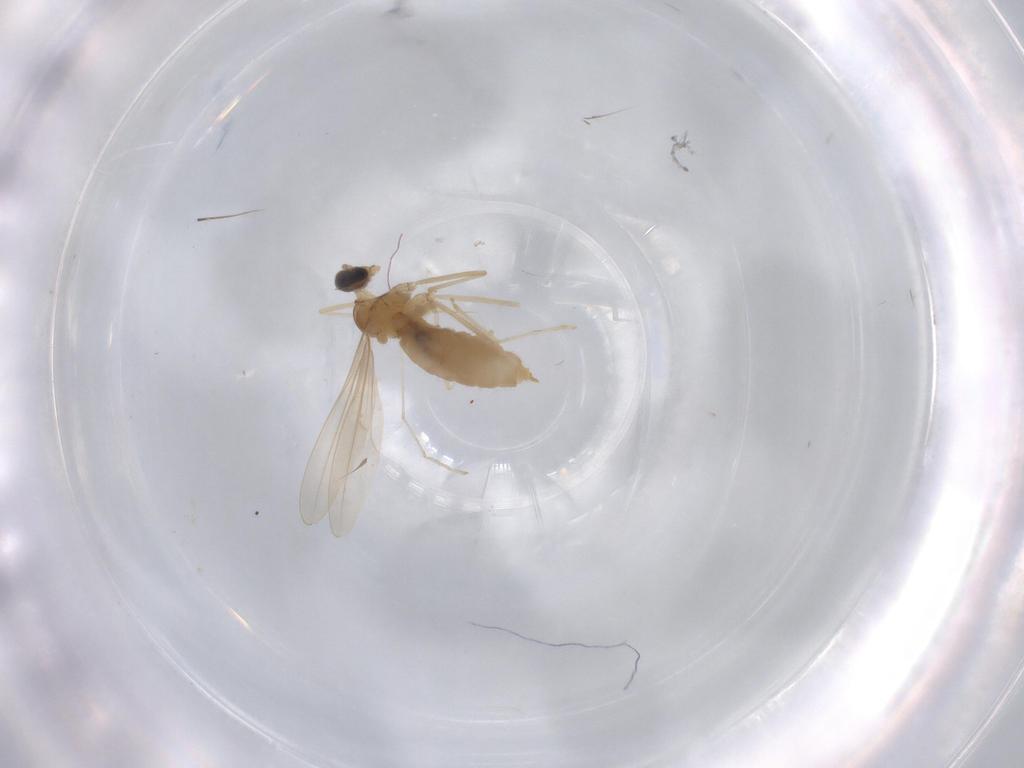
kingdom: Animalia
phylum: Arthropoda
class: Insecta
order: Diptera
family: Cecidomyiidae
